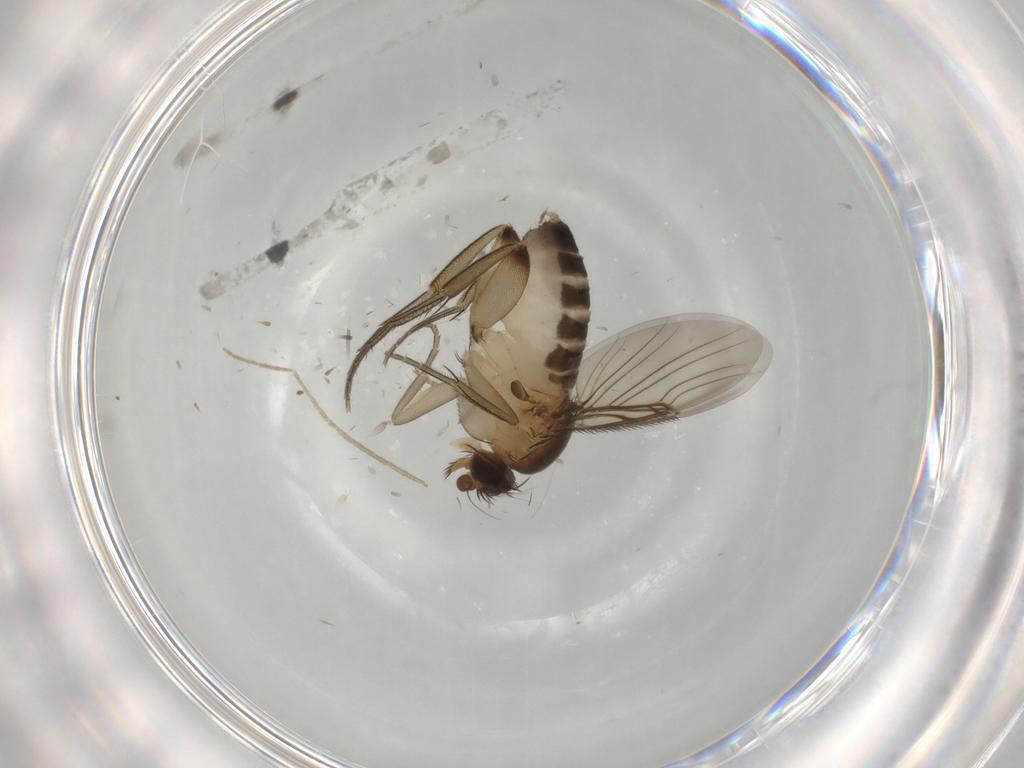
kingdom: Animalia
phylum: Arthropoda
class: Insecta
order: Diptera
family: Phoridae
